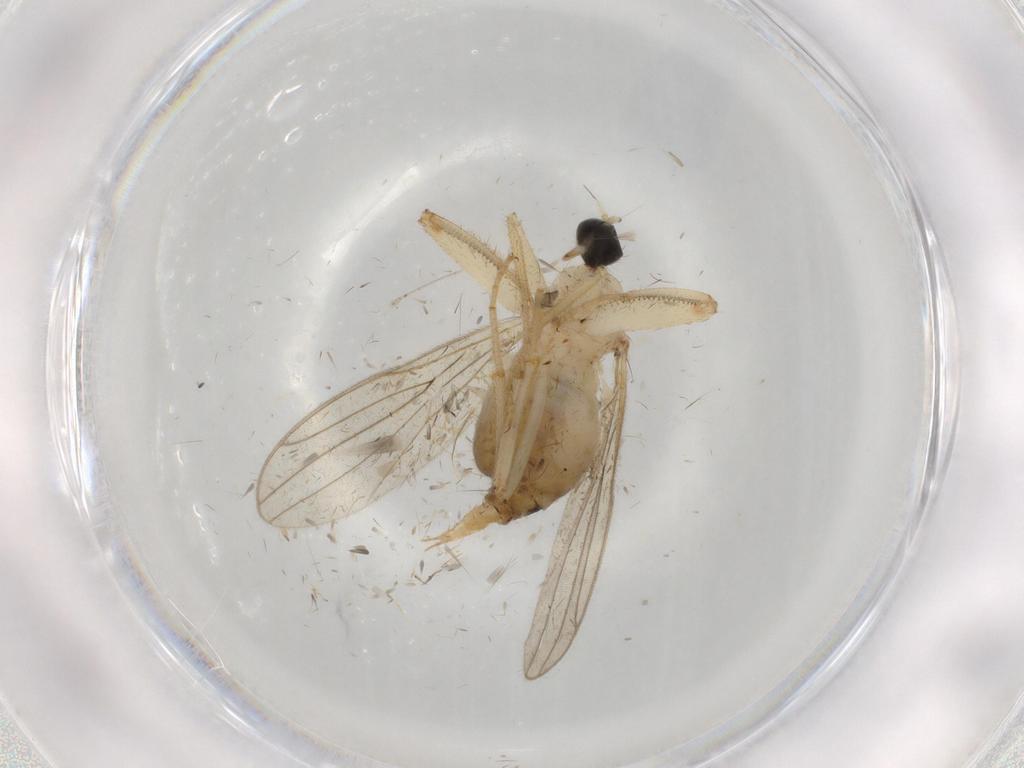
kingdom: Animalia
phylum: Arthropoda
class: Insecta
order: Diptera
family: Hybotidae
